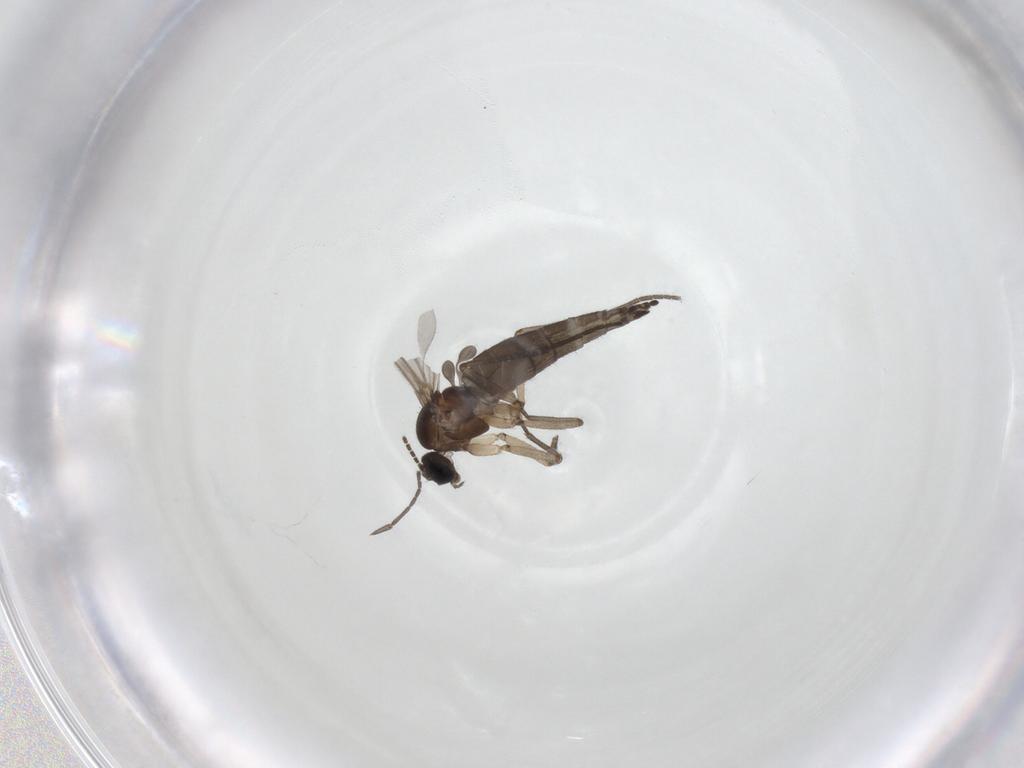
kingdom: Animalia
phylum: Arthropoda
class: Insecta
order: Diptera
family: Sciaridae
